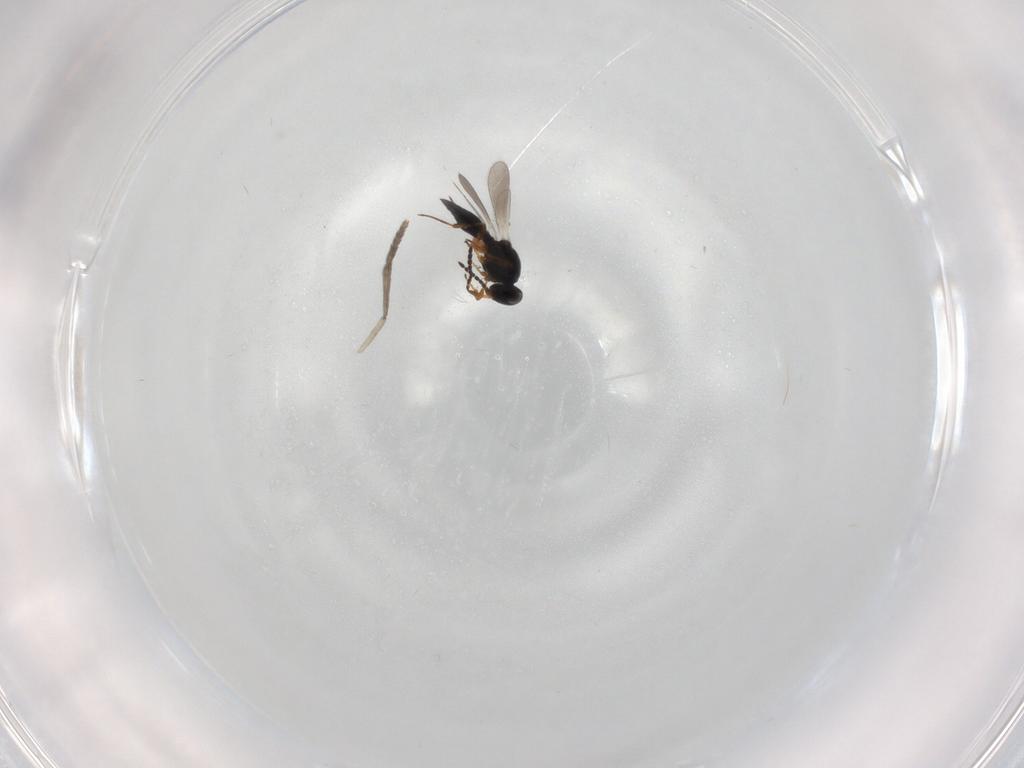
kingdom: Animalia
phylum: Arthropoda
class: Insecta
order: Hymenoptera
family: Platygastridae
